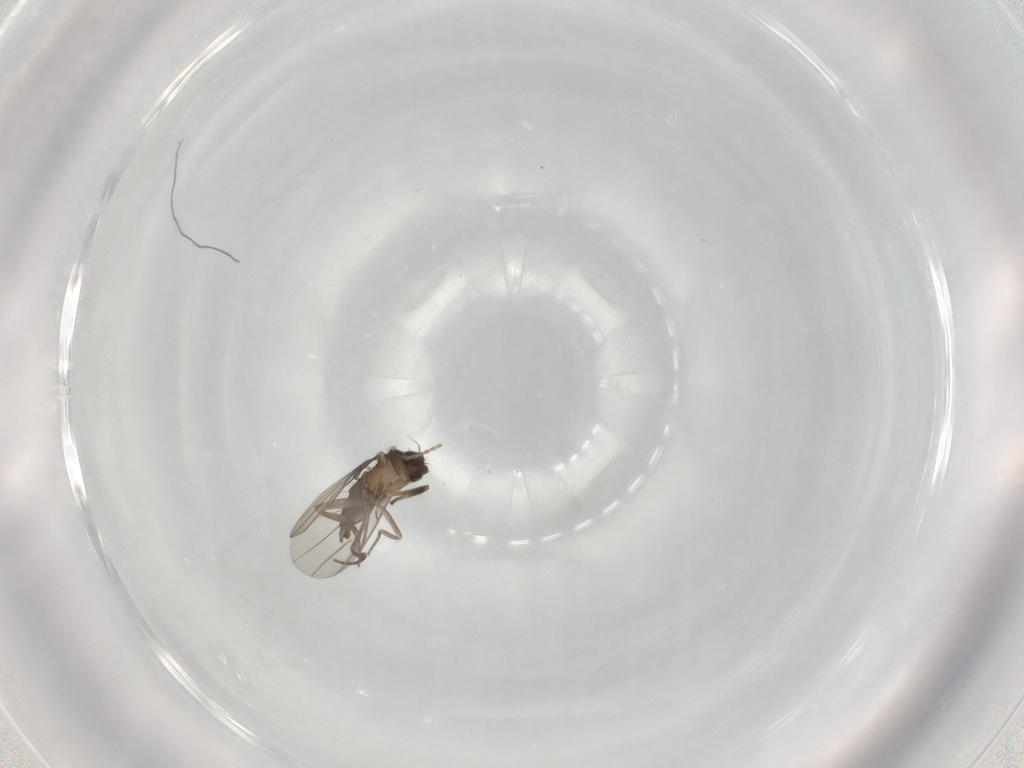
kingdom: Animalia
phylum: Arthropoda
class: Insecta
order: Diptera
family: Phoridae
